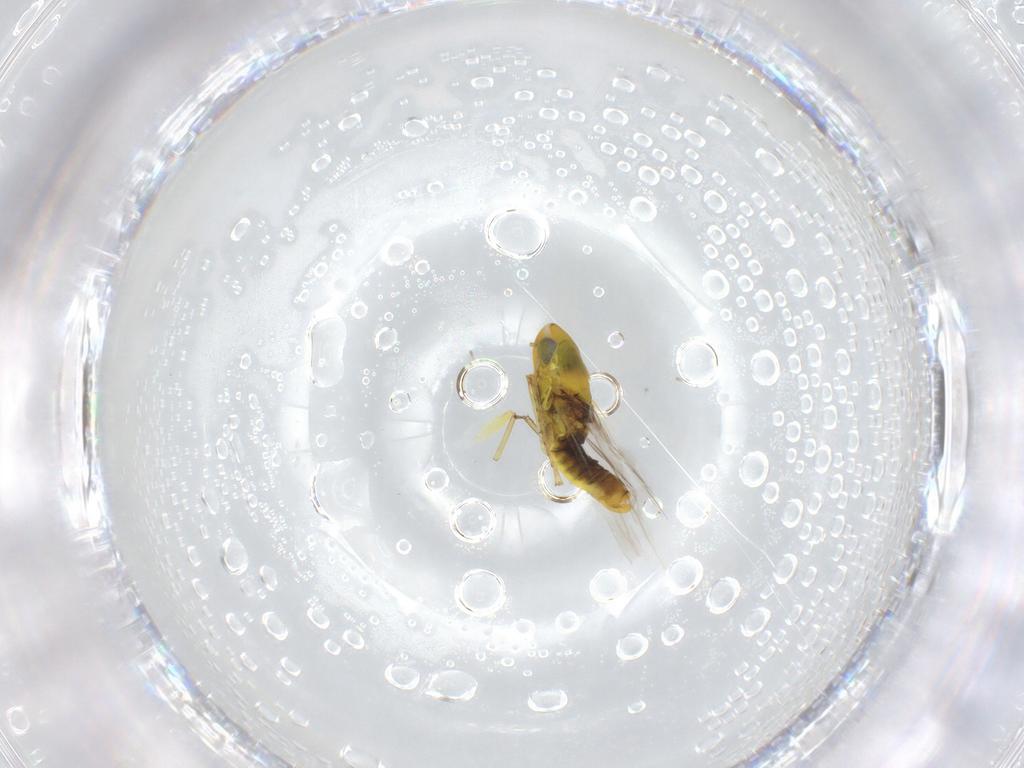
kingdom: Animalia
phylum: Arthropoda
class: Insecta
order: Hemiptera
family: Cicadellidae
